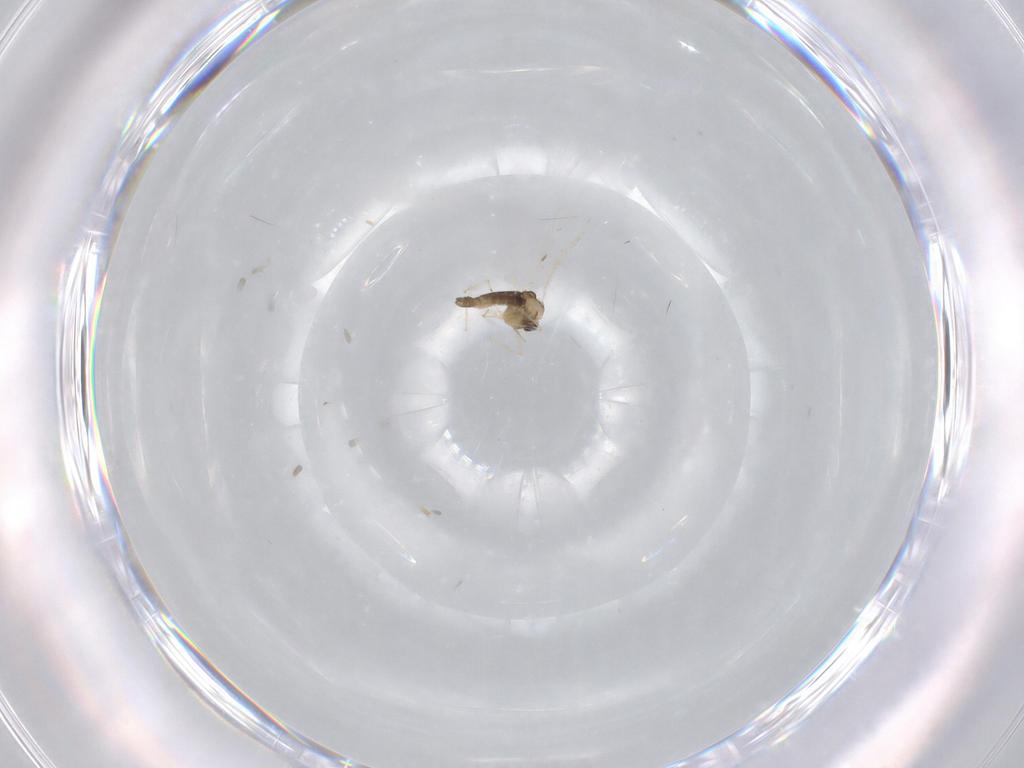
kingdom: Animalia
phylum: Arthropoda
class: Insecta
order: Diptera
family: Chironomidae
